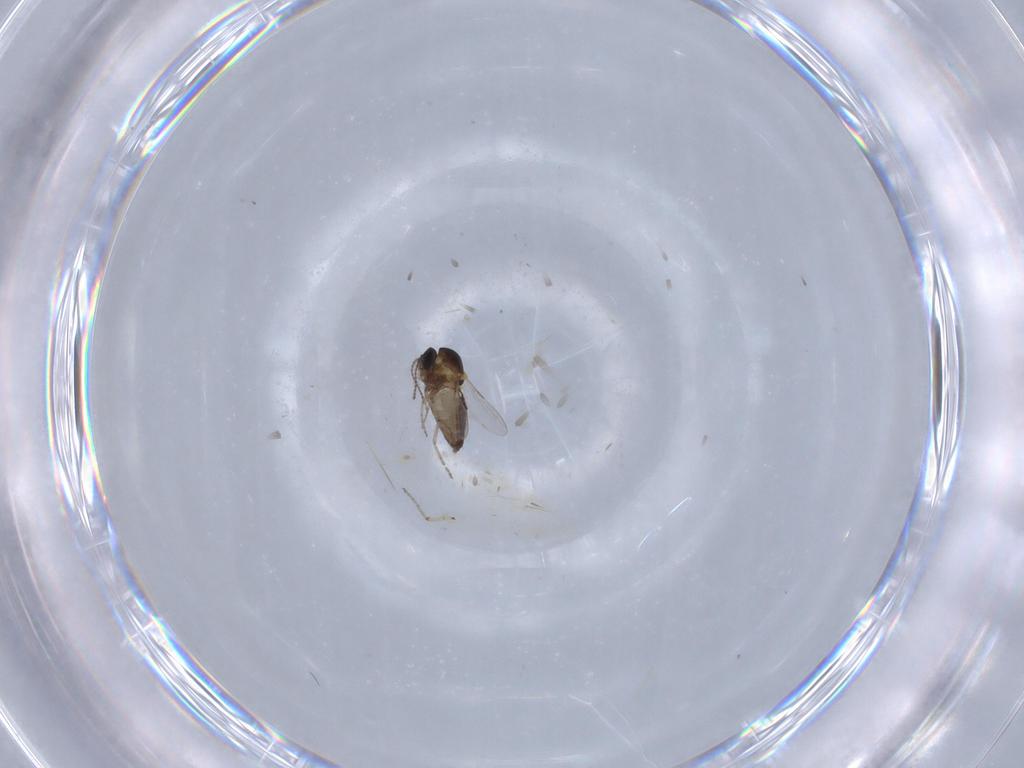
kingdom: Animalia
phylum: Arthropoda
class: Insecta
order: Diptera
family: Ceratopogonidae
